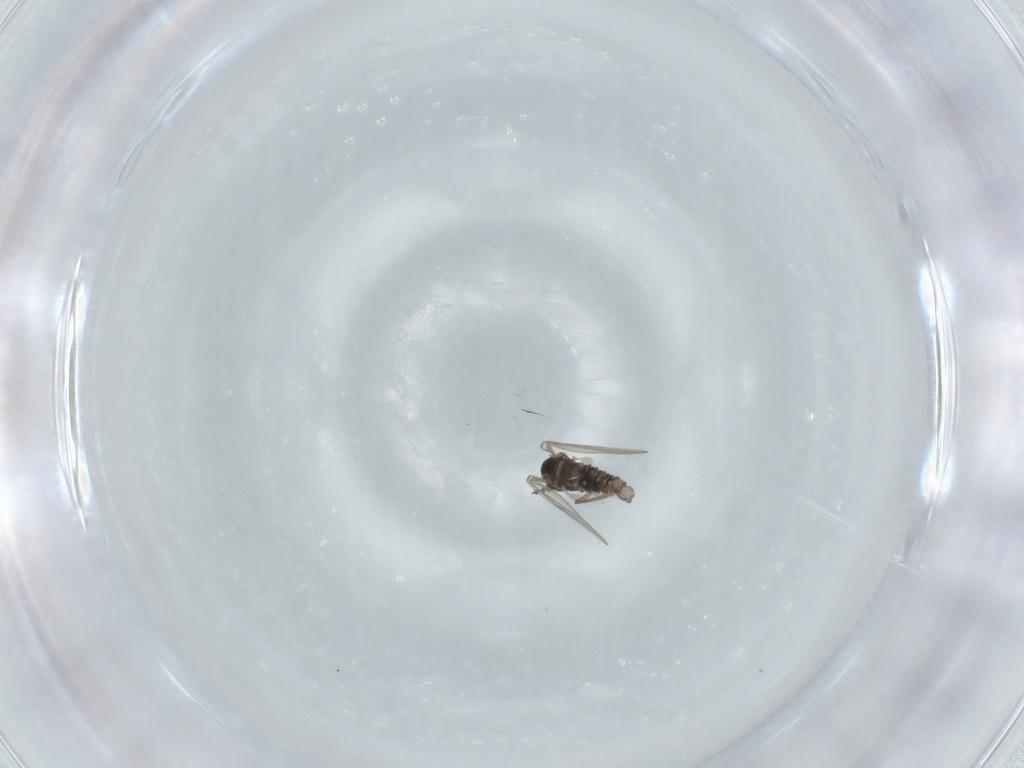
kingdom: Animalia
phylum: Arthropoda
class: Insecta
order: Diptera
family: Psychodidae
